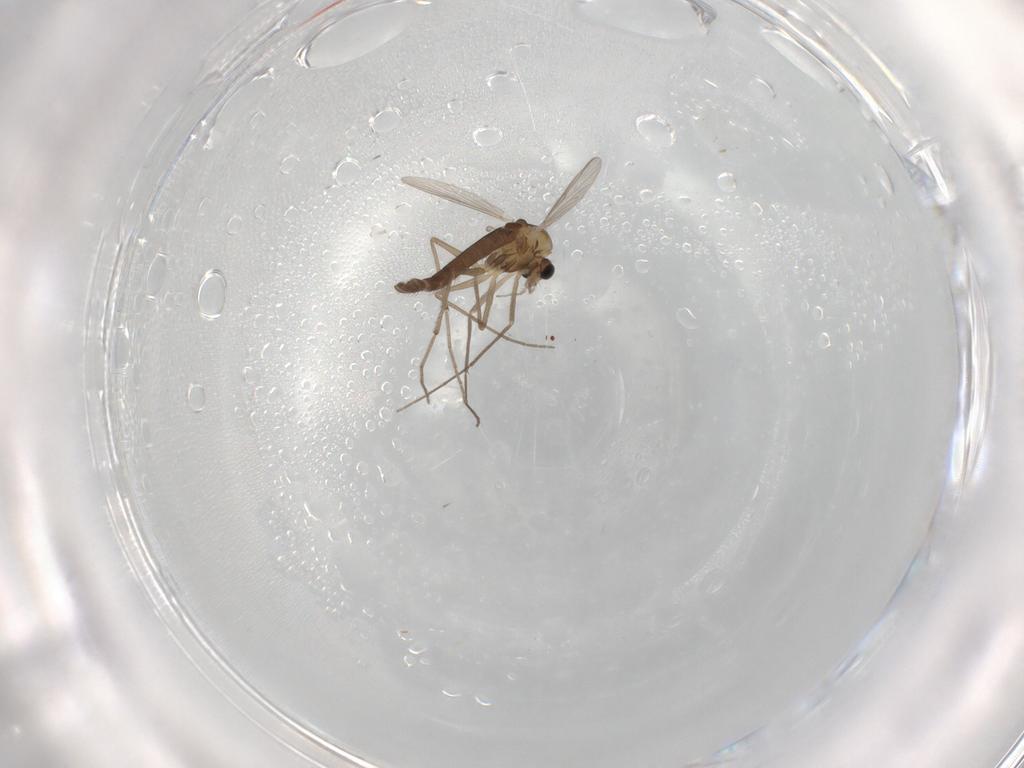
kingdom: Animalia
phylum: Arthropoda
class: Insecta
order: Diptera
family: Chironomidae
